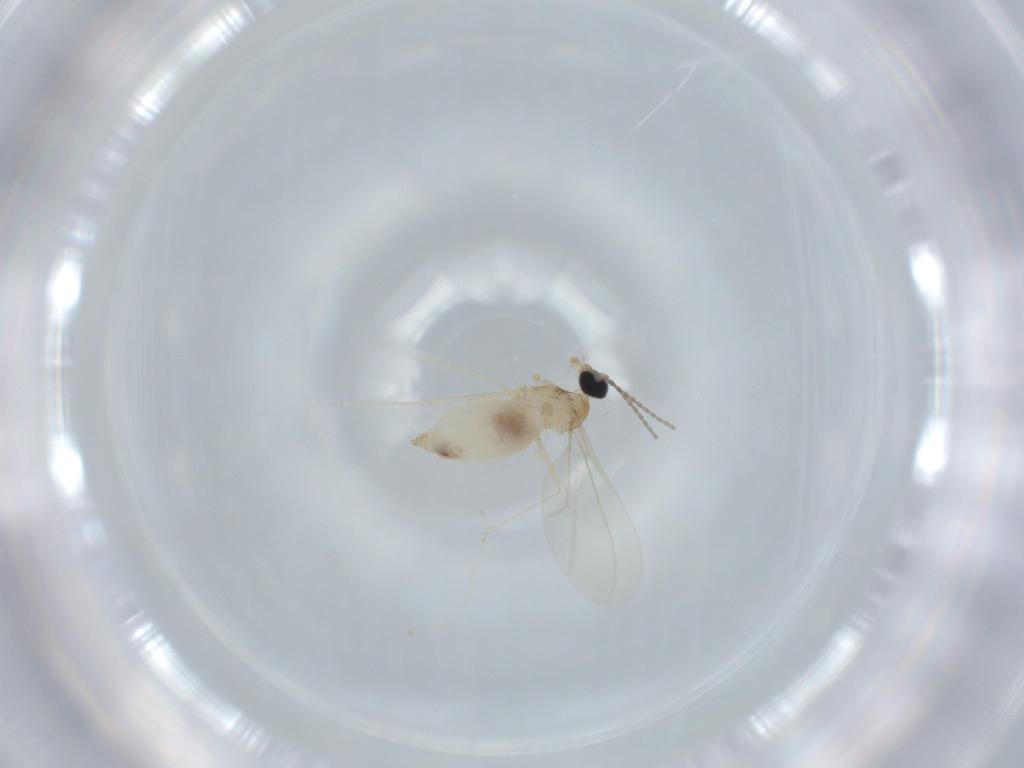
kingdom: Animalia
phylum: Arthropoda
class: Insecta
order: Diptera
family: Cecidomyiidae
